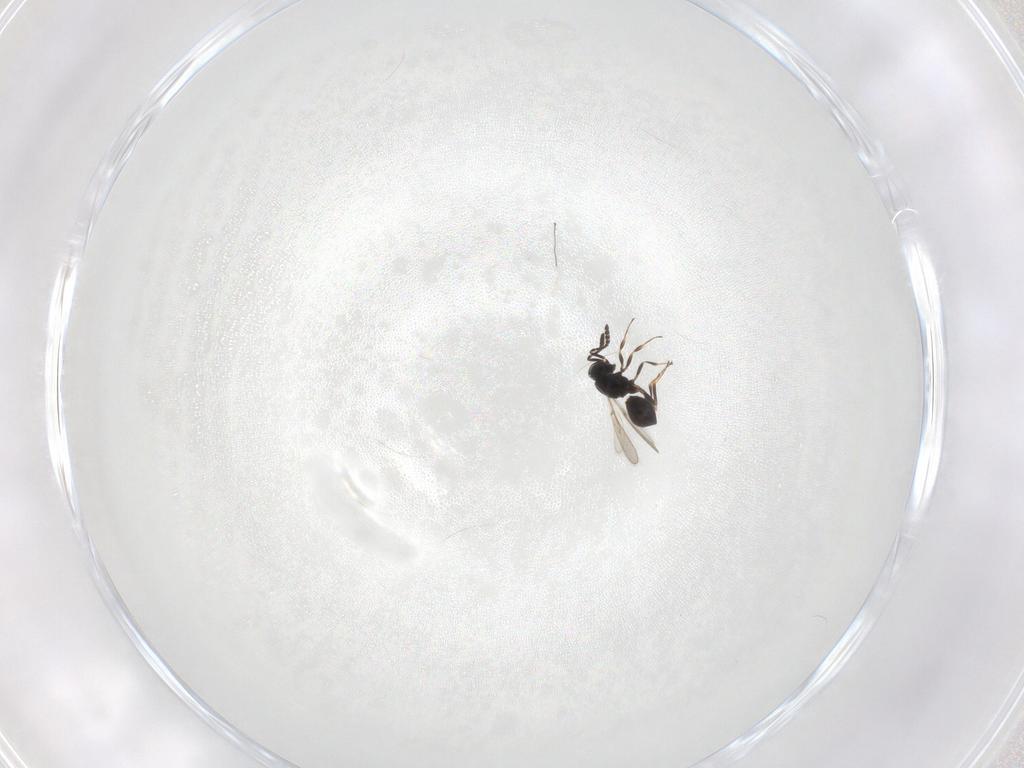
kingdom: Animalia
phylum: Arthropoda
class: Insecta
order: Hymenoptera
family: Scelionidae
